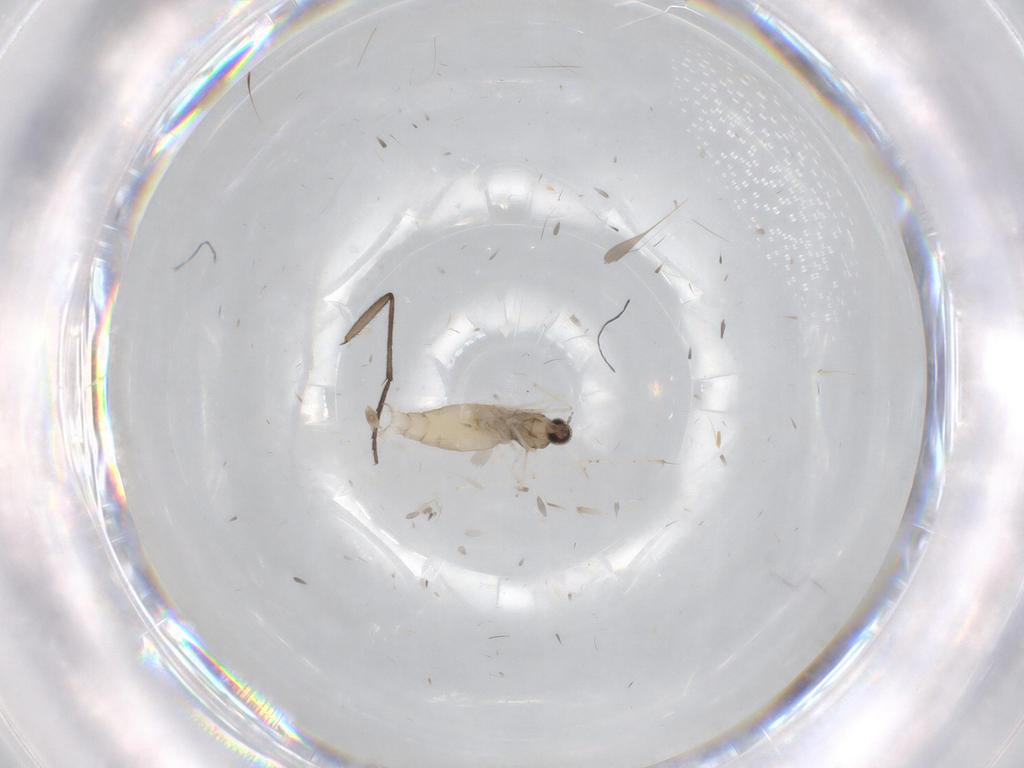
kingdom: Animalia
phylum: Arthropoda
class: Insecta
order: Diptera
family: Cecidomyiidae
